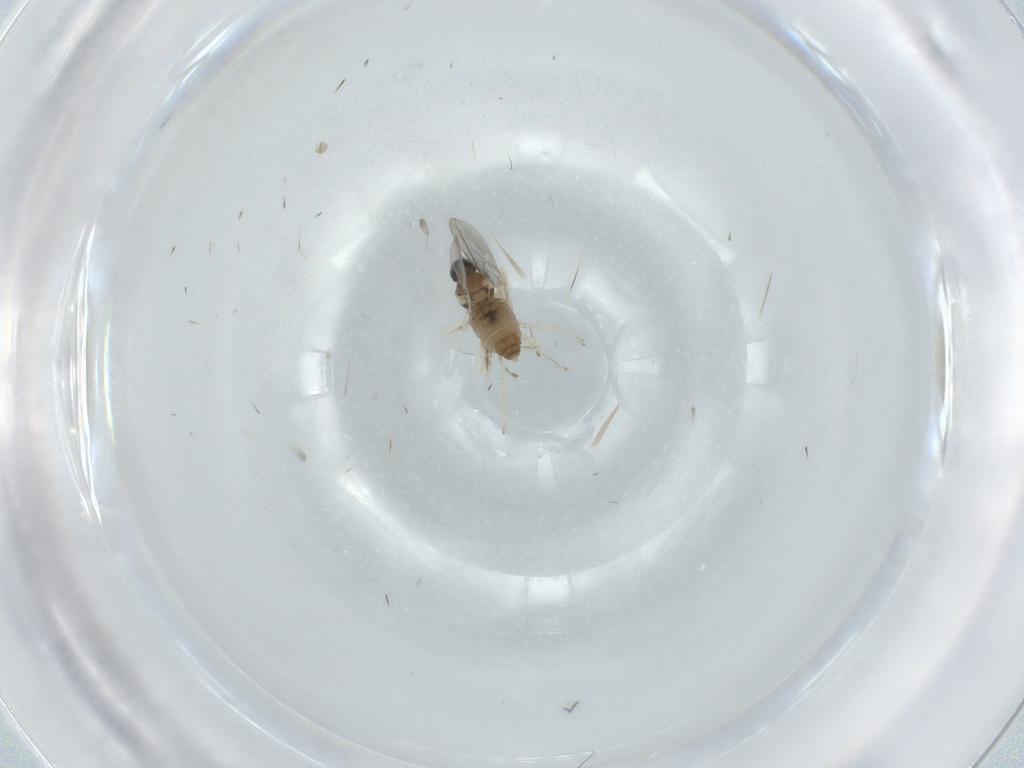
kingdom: Animalia
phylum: Arthropoda
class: Insecta
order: Diptera
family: Cecidomyiidae
